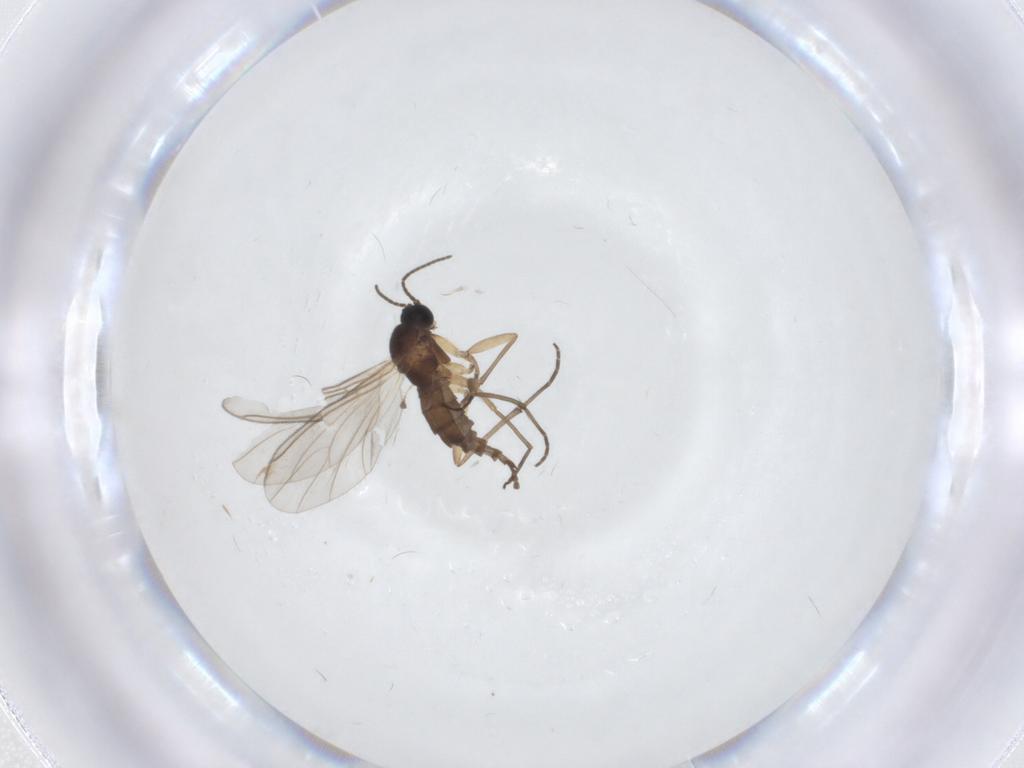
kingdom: Animalia
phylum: Arthropoda
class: Insecta
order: Diptera
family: Sciaridae
